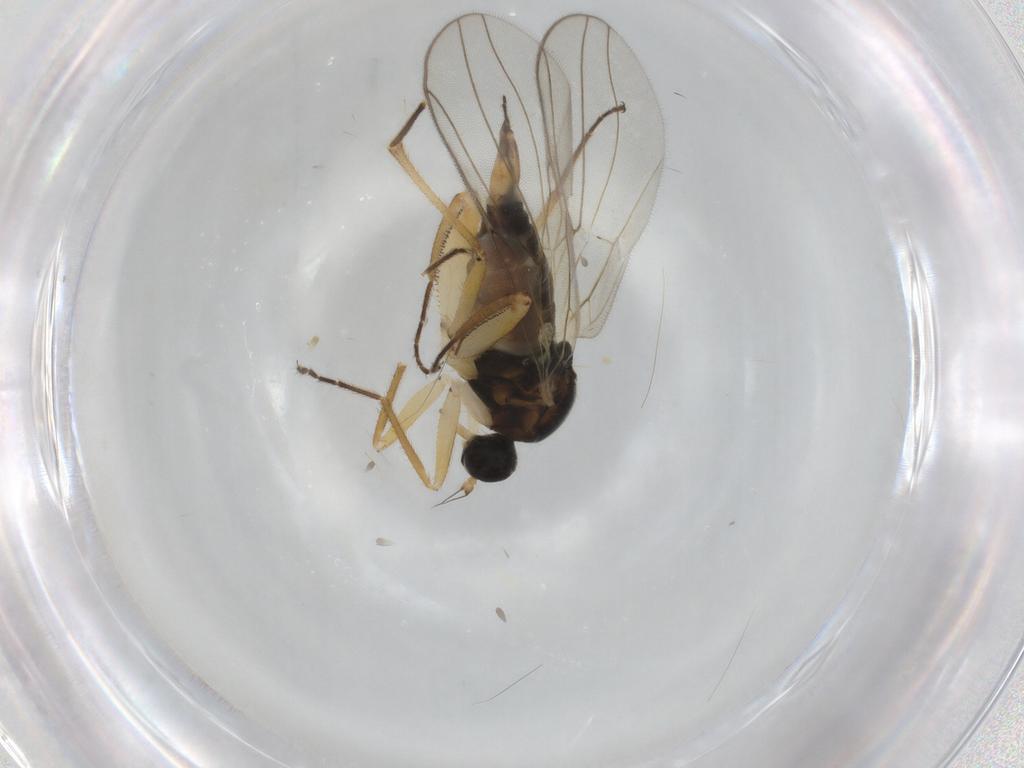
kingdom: Animalia
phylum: Arthropoda
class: Insecta
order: Diptera
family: Hybotidae
